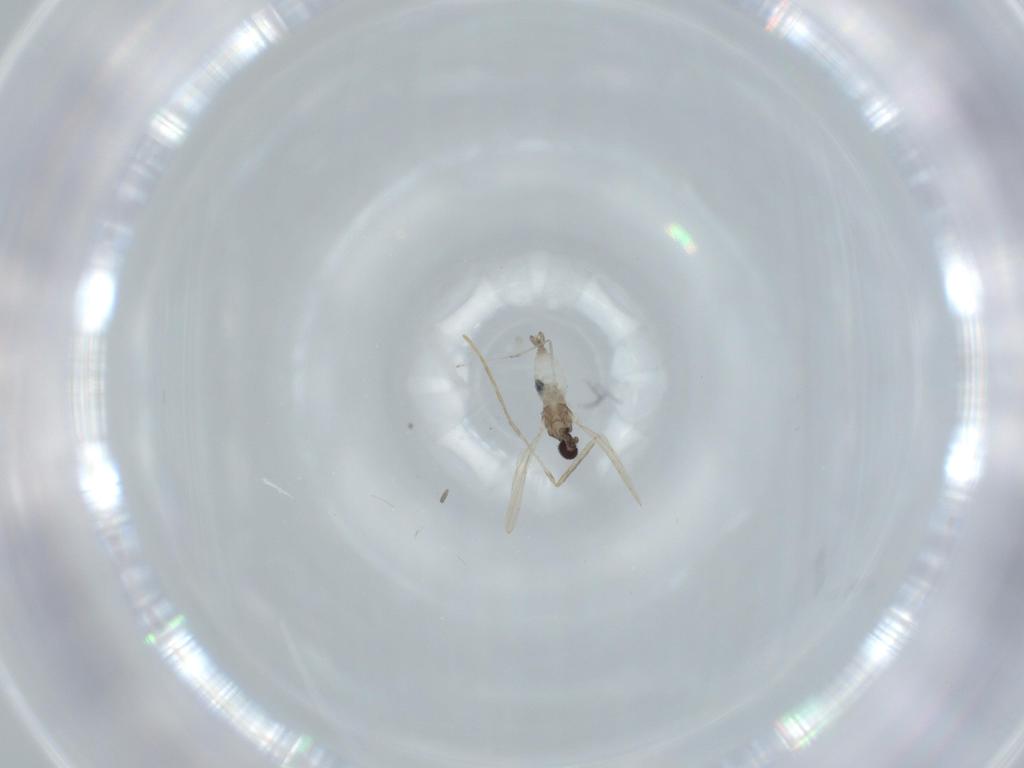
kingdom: Animalia
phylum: Arthropoda
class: Insecta
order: Diptera
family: Cecidomyiidae
